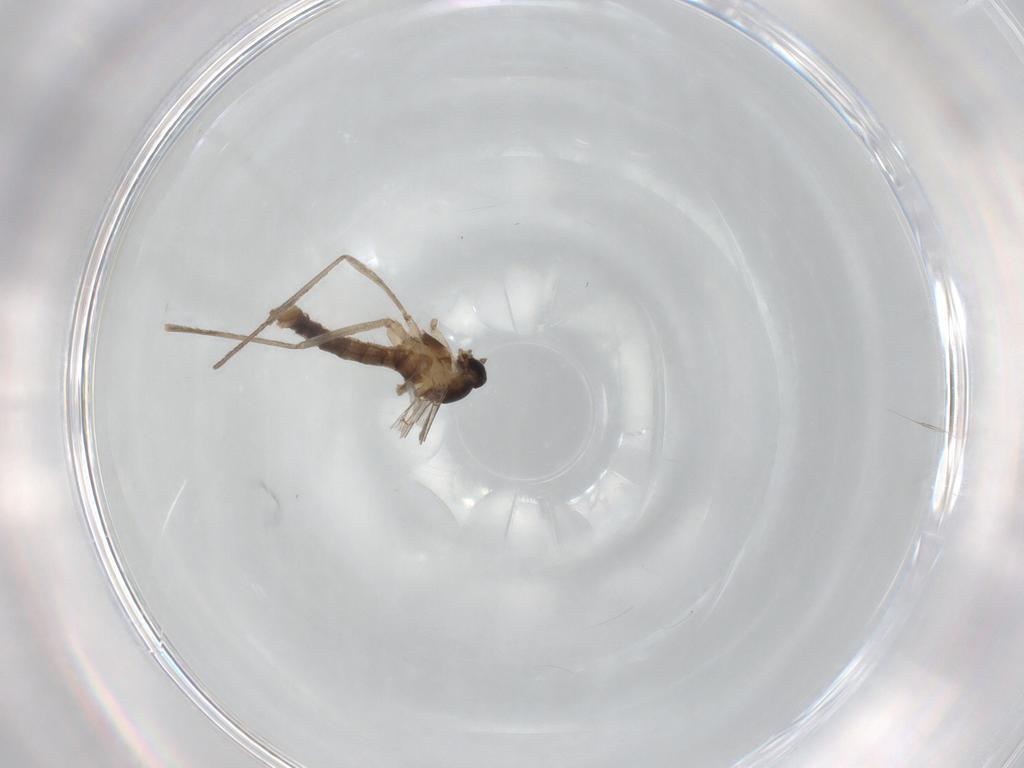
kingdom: Animalia
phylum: Arthropoda
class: Insecta
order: Diptera
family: Cecidomyiidae
